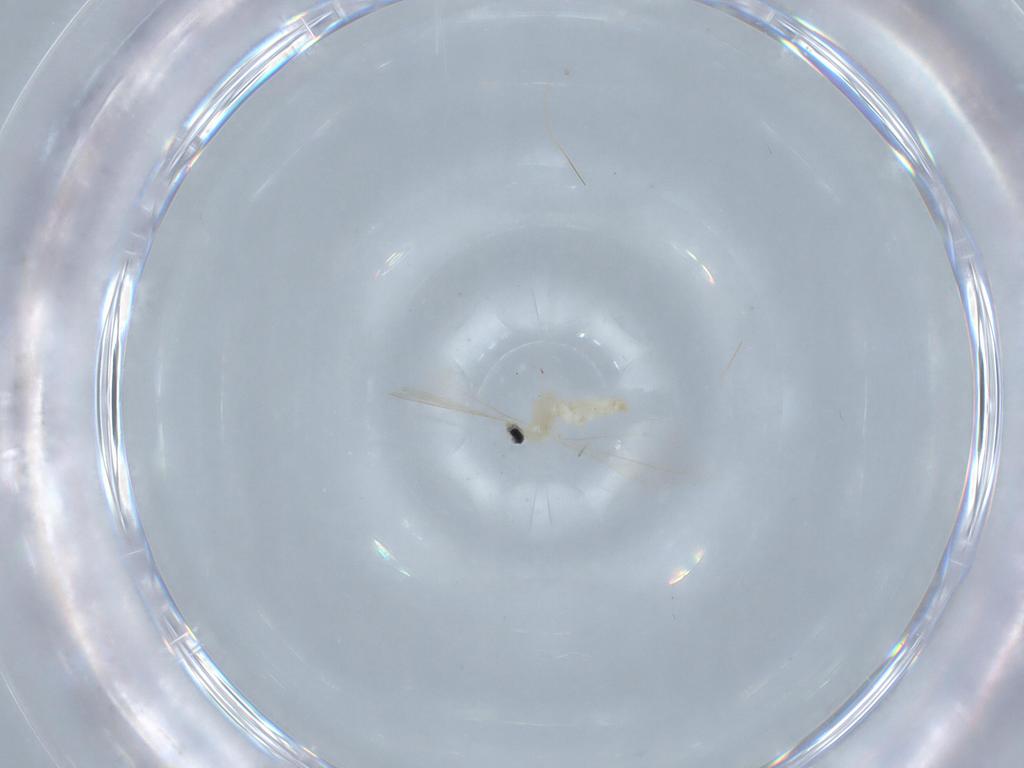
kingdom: Animalia
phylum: Arthropoda
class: Insecta
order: Diptera
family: Cecidomyiidae
